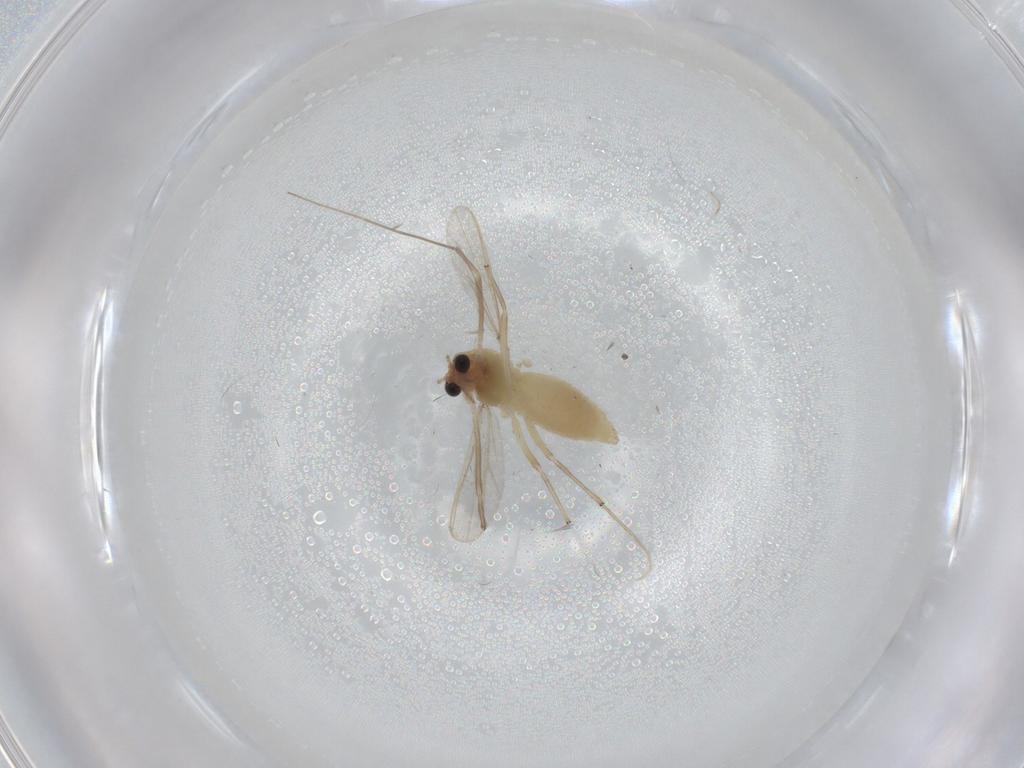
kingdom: Animalia
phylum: Arthropoda
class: Insecta
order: Diptera
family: Chironomidae
